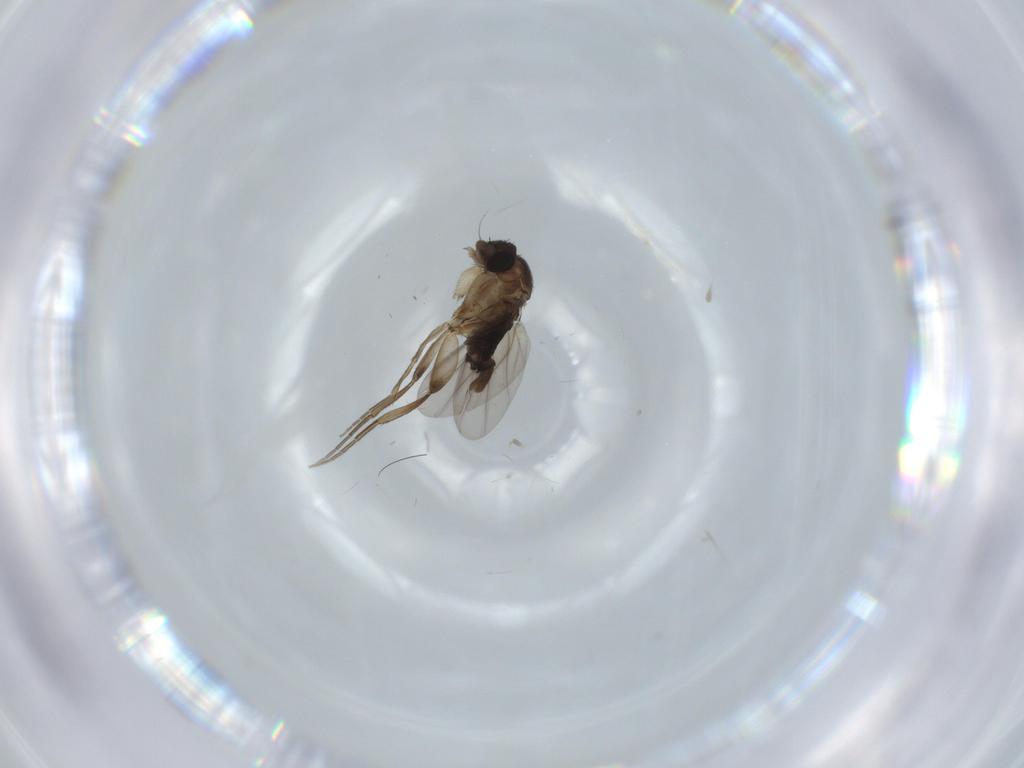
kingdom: Animalia
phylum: Arthropoda
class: Insecta
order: Diptera
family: Phoridae
